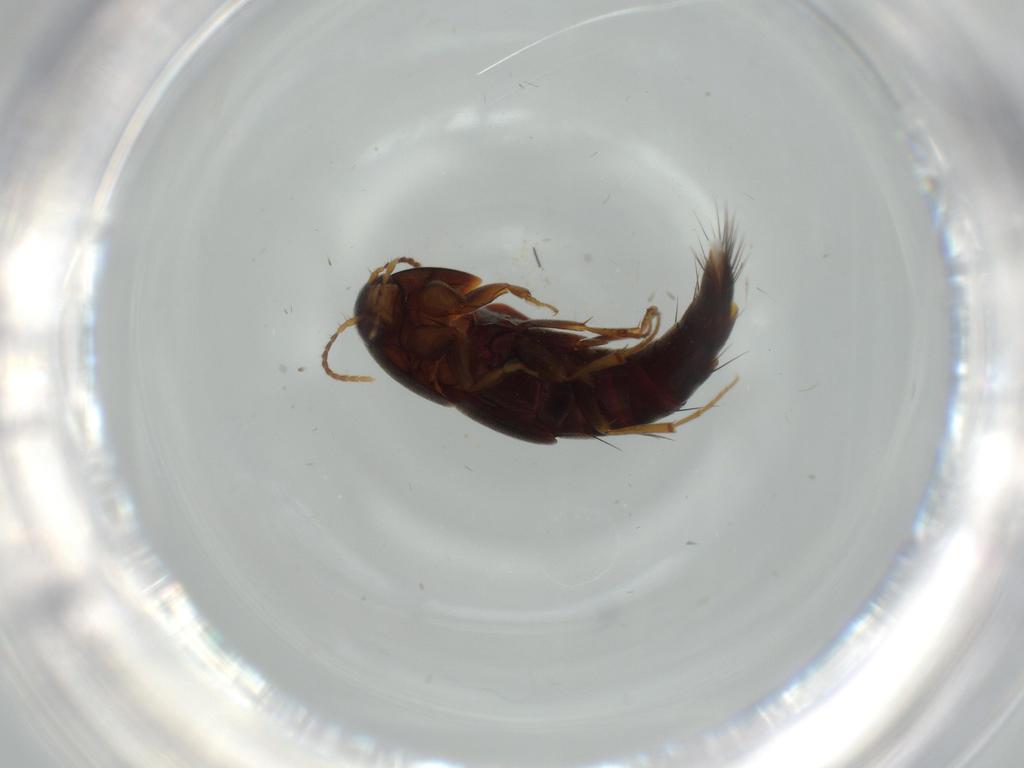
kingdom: Animalia
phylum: Arthropoda
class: Insecta
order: Coleoptera
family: Staphylinidae
